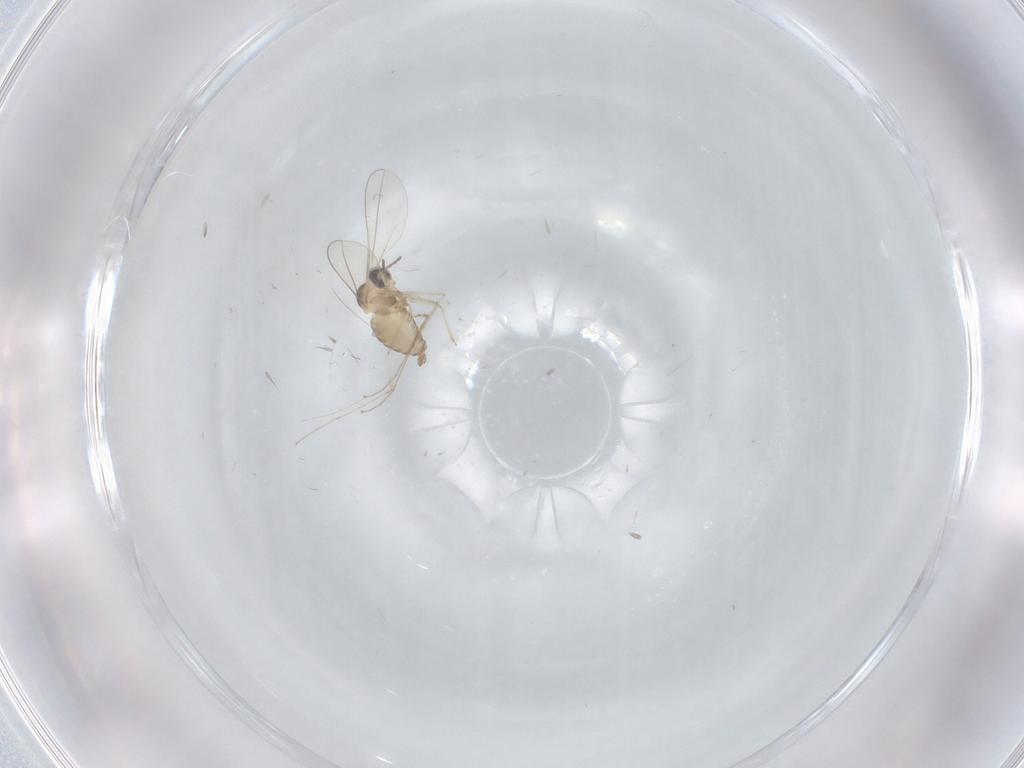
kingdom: Animalia
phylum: Arthropoda
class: Insecta
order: Diptera
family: Cecidomyiidae
